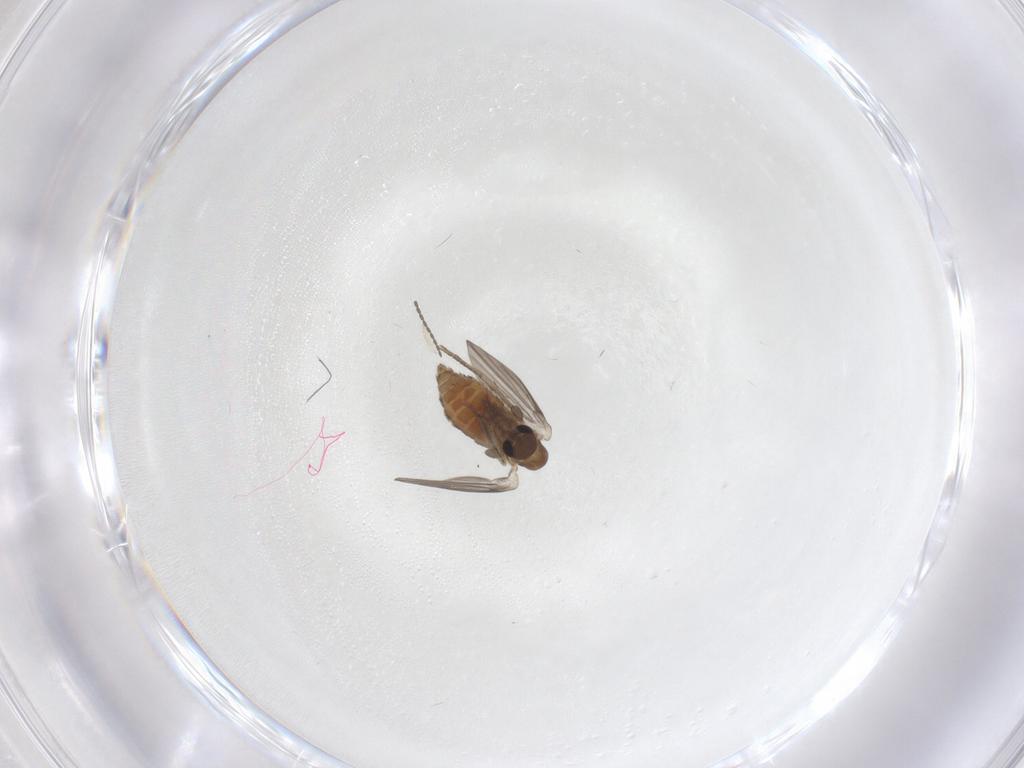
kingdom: Animalia
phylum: Arthropoda
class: Insecta
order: Diptera
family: Cecidomyiidae
